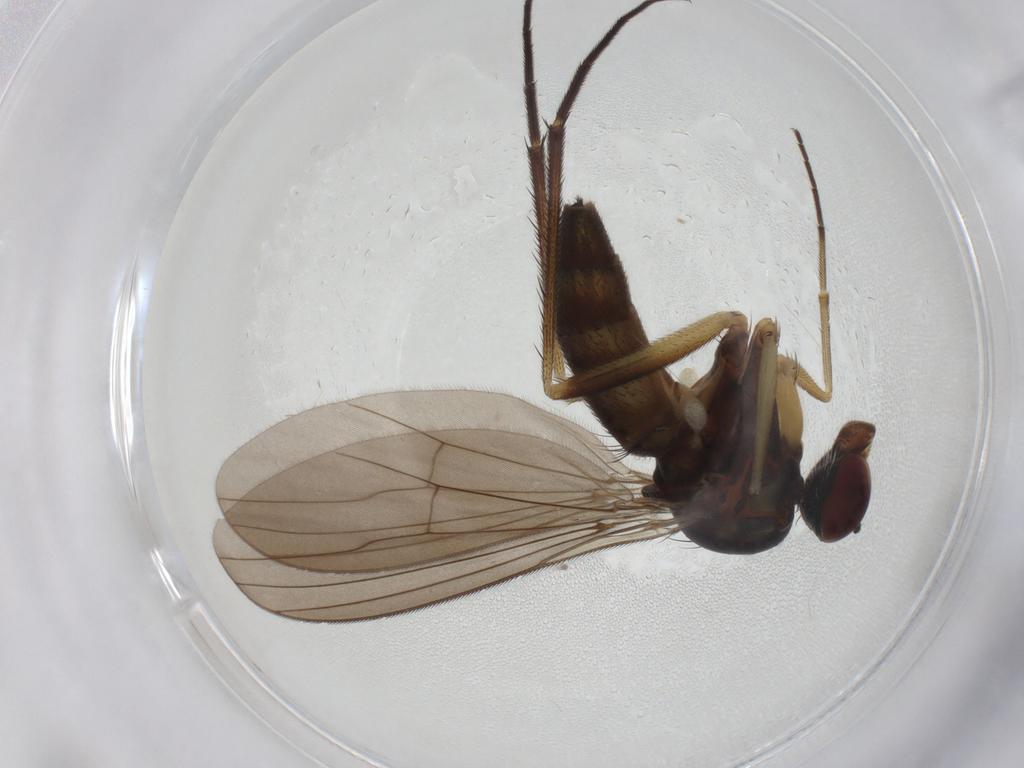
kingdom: Animalia
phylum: Arthropoda
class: Insecta
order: Diptera
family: Dolichopodidae
